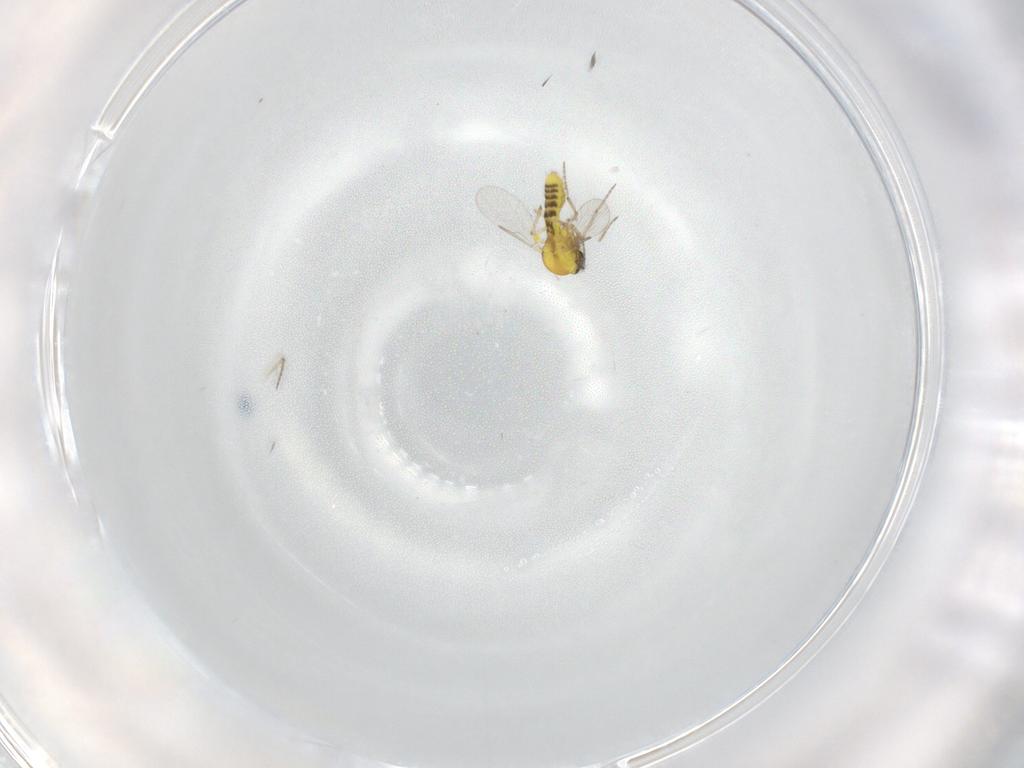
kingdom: Animalia
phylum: Arthropoda
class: Insecta
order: Diptera
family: Ceratopogonidae
